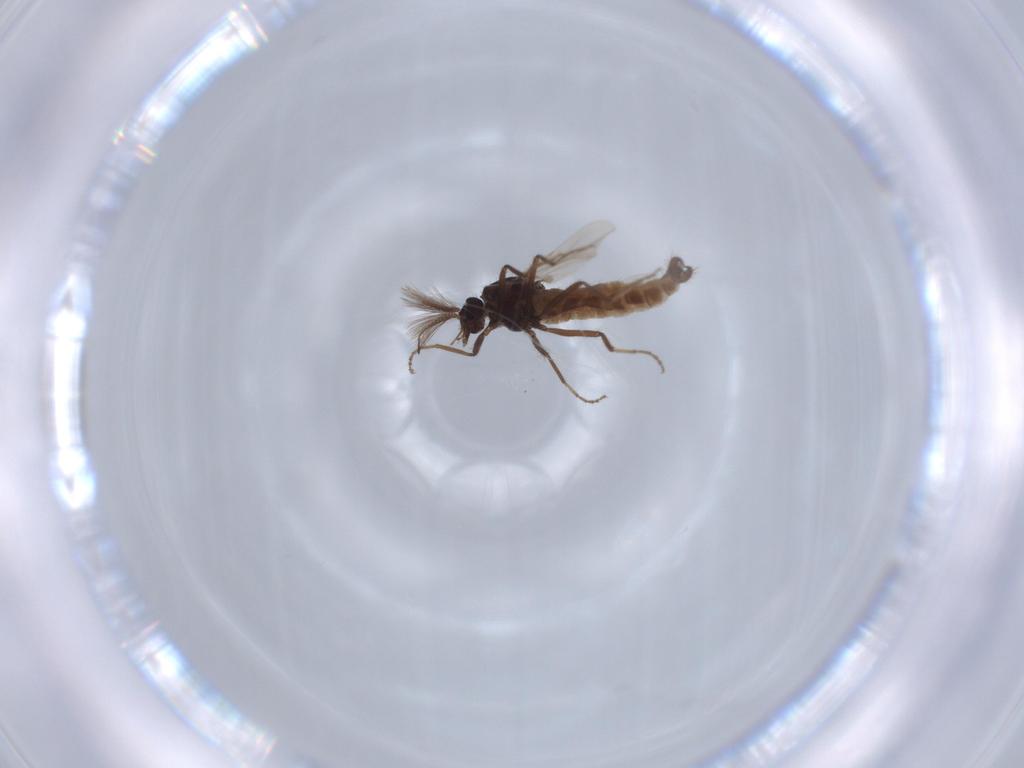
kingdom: Animalia
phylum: Arthropoda
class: Insecta
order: Diptera
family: Ceratopogonidae
